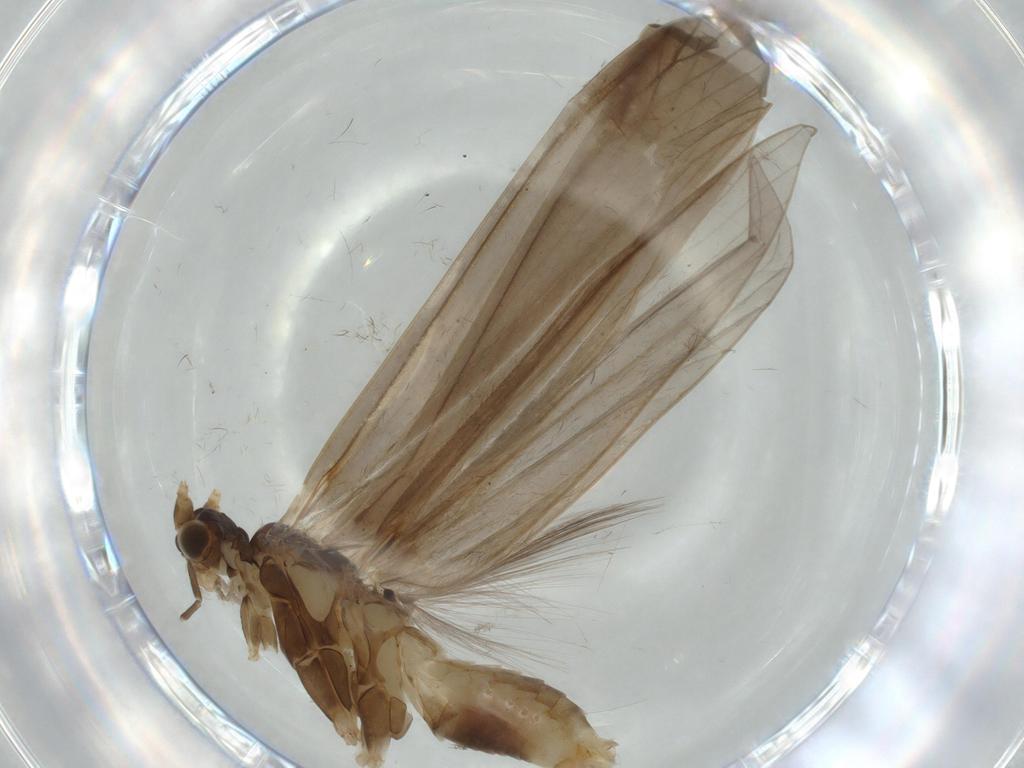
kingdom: Animalia
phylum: Arthropoda
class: Insecta
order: Trichoptera
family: Leptoceridae
